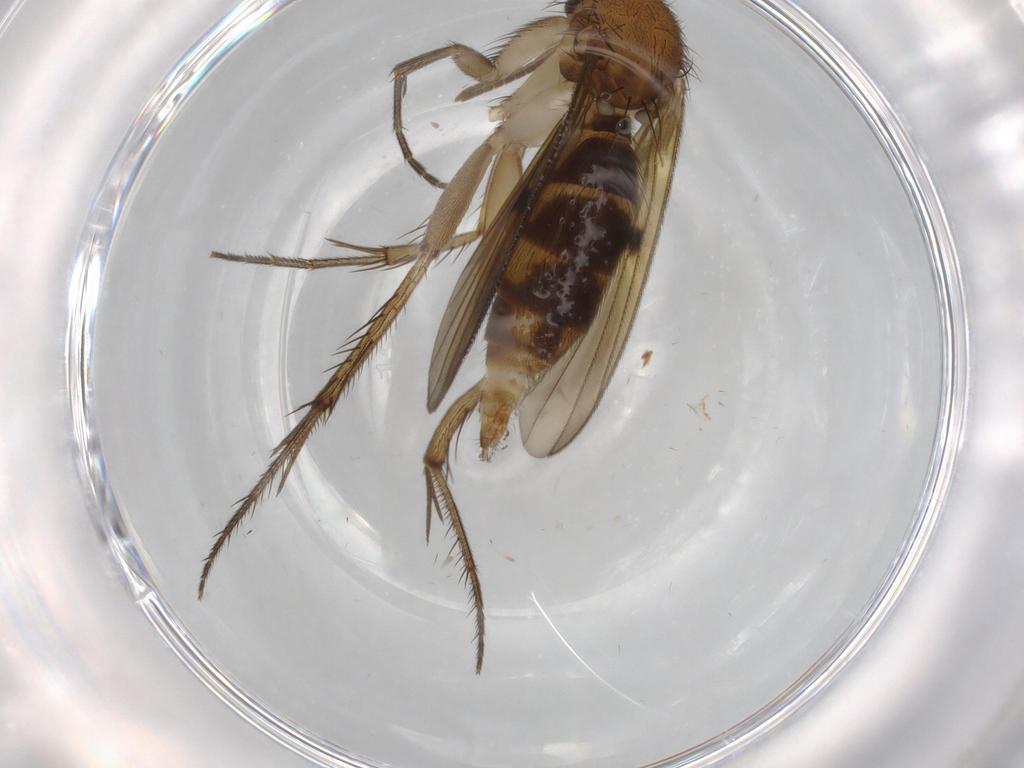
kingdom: Animalia
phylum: Arthropoda
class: Insecta
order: Diptera
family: Mycetophilidae
